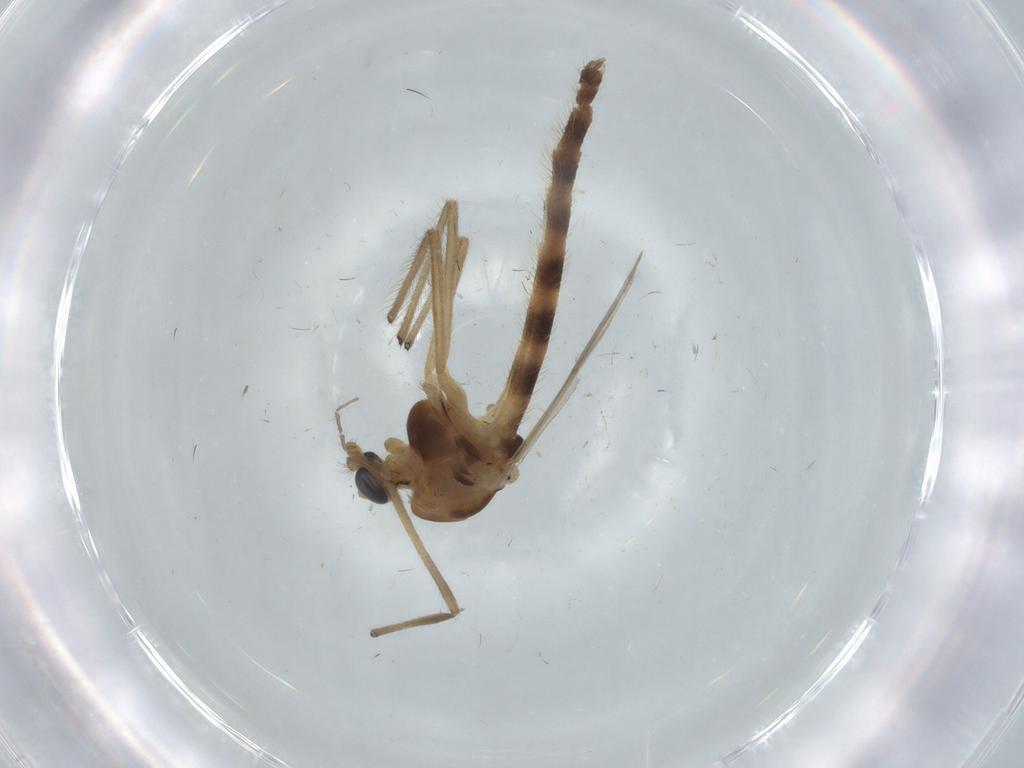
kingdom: Animalia
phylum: Arthropoda
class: Insecta
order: Diptera
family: Chironomidae
